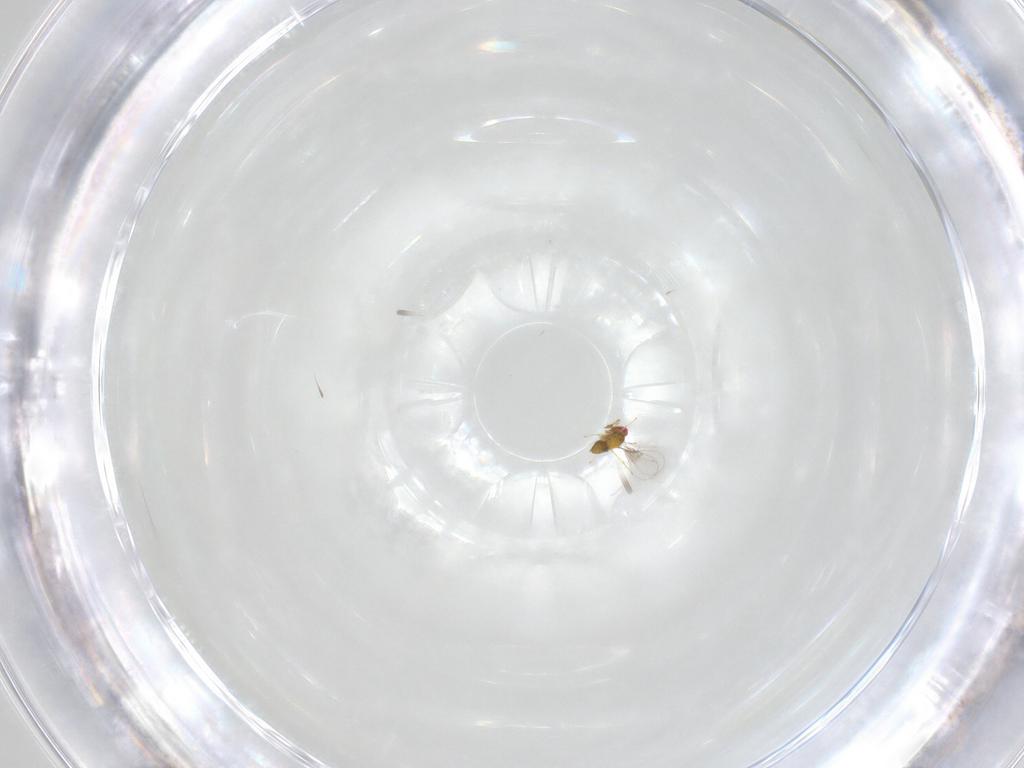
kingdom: Animalia
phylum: Arthropoda
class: Insecta
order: Hymenoptera
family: Trichogrammatidae
